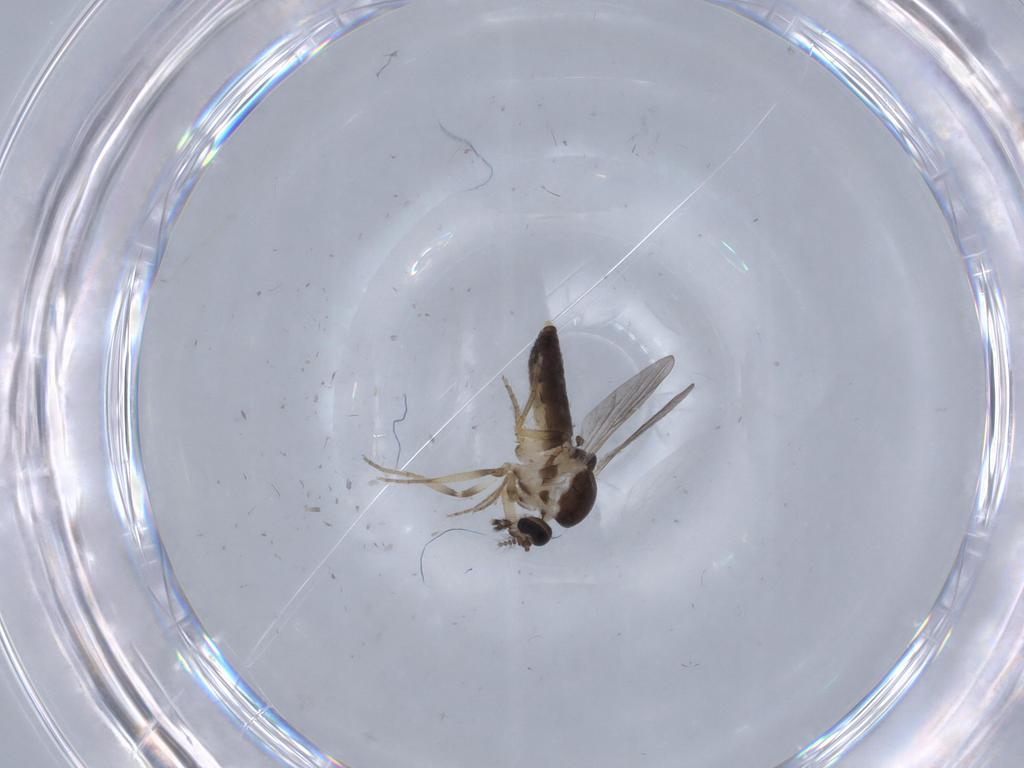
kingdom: Animalia
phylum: Arthropoda
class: Insecta
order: Diptera
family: Ceratopogonidae
